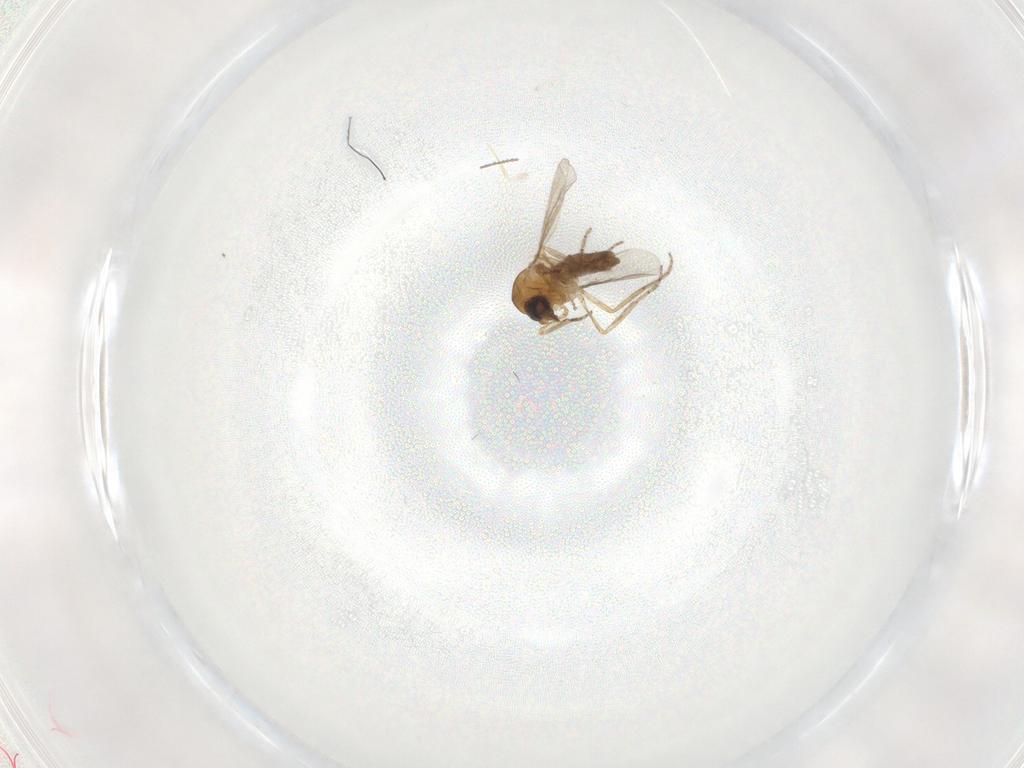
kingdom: Animalia
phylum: Arthropoda
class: Insecta
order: Diptera
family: Ceratopogonidae
